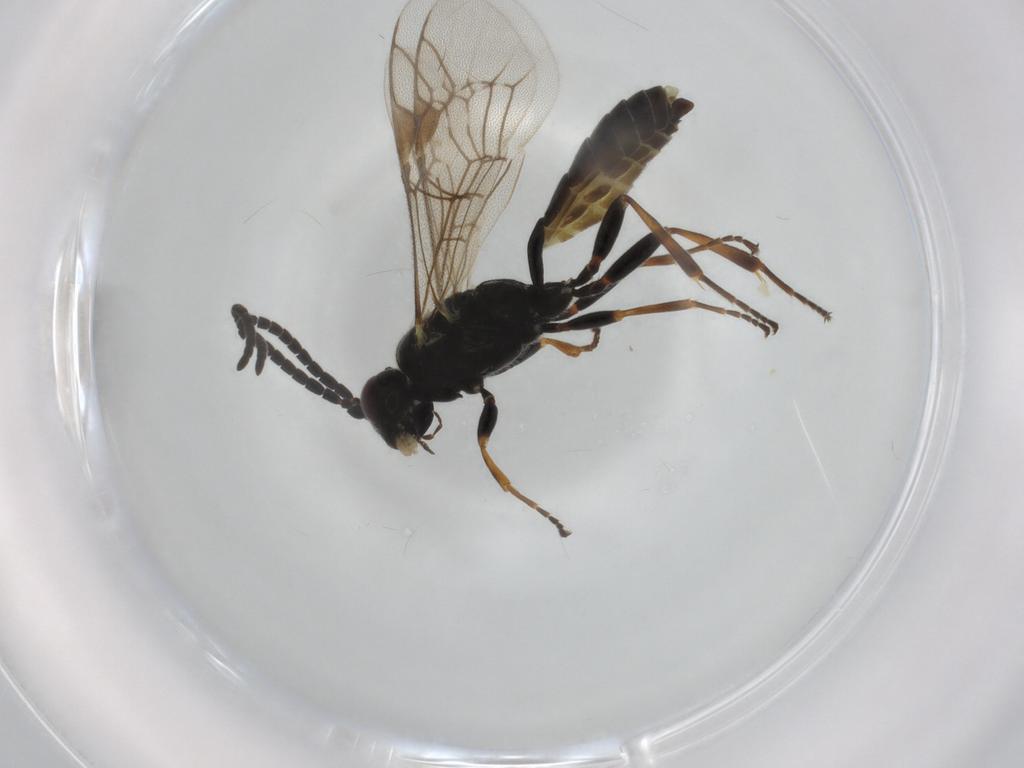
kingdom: Animalia
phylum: Arthropoda
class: Insecta
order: Hymenoptera
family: Ichneumonidae
